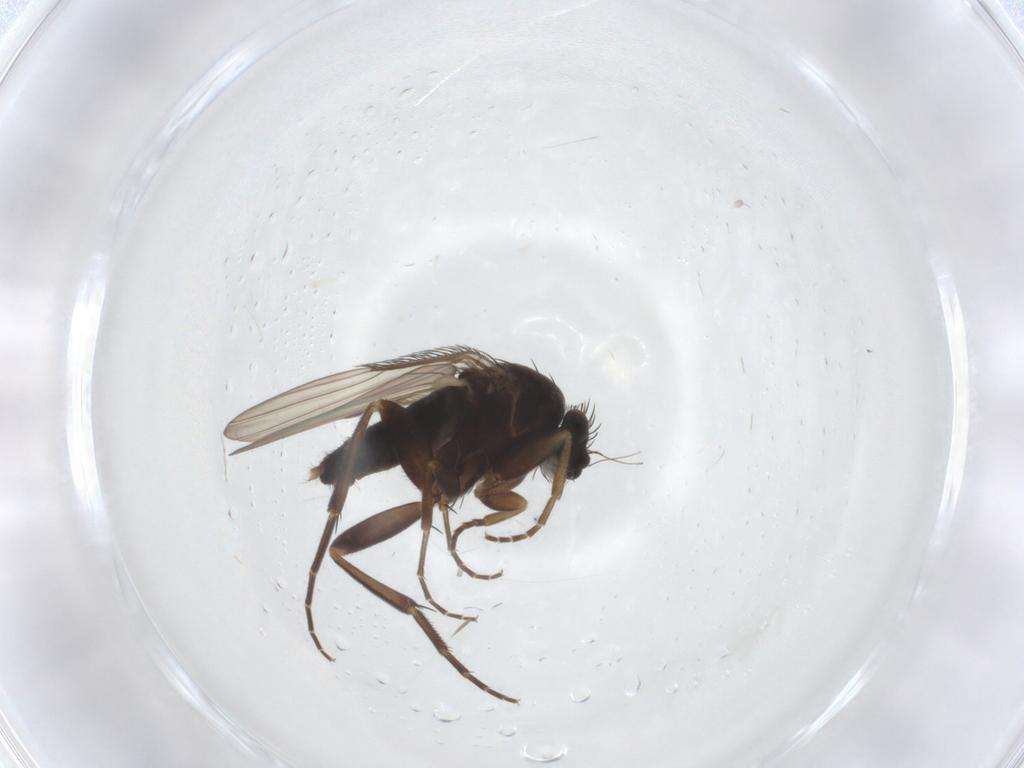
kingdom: Animalia
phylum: Arthropoda
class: Insecta
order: Diptera
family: Phoridae
